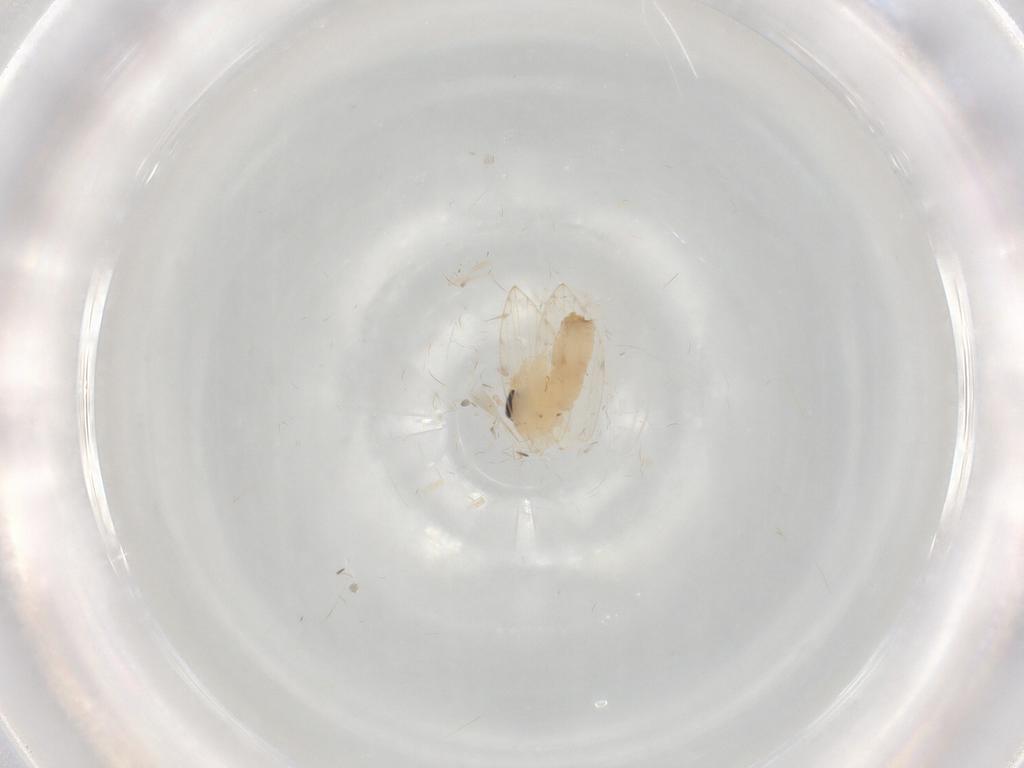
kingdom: Animalia
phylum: Arthropoda
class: Insecta
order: Diptera
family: Psychodidae
